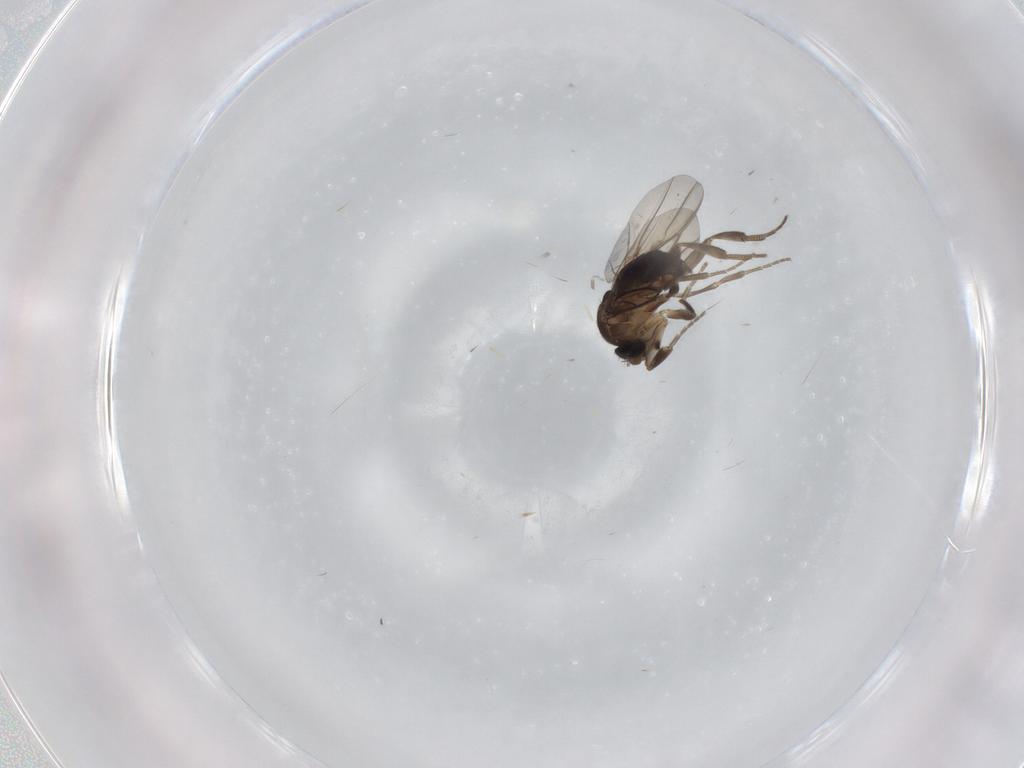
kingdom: Animalia
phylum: Arthropoda
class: Insecta
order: Diptera
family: Phoridae
